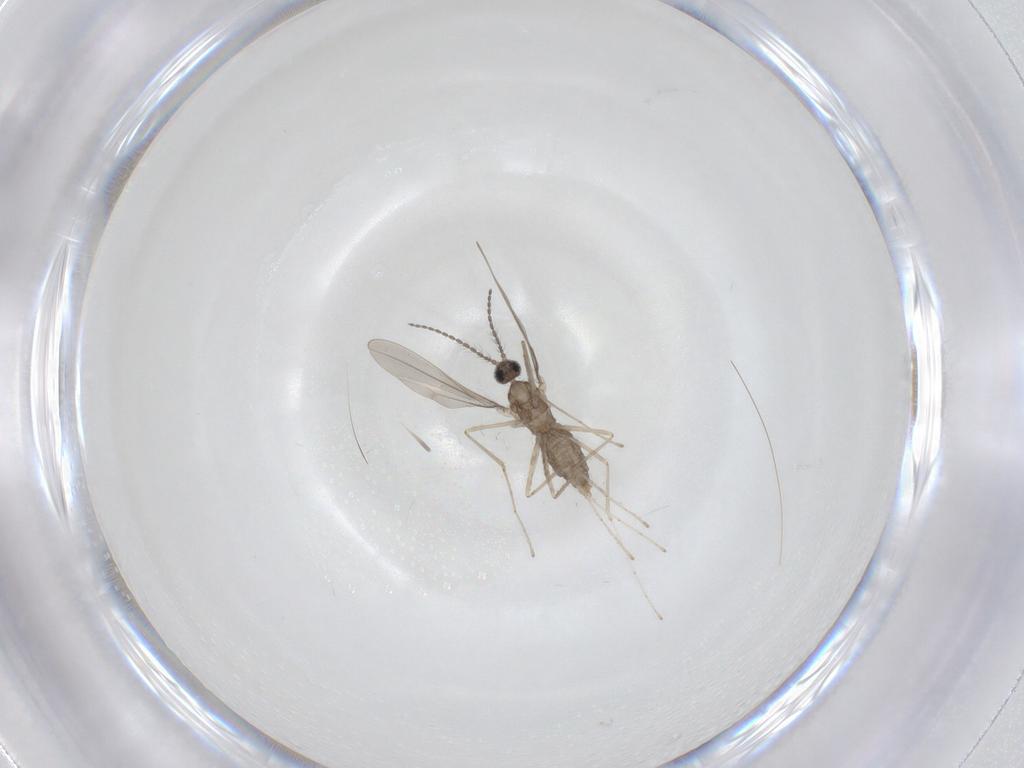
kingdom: Animalia
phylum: Arthropoda
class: Insecta
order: Diptera
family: Cecidomyiidae
